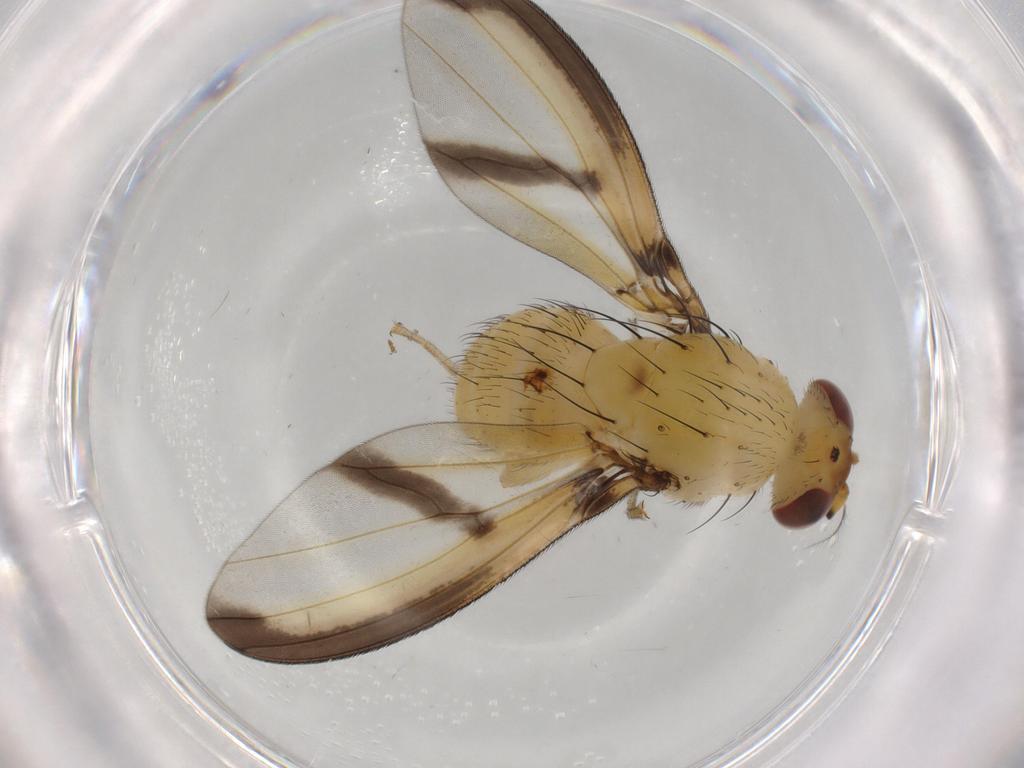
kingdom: Animalia
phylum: Arthropoda
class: Insecta
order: Diptera
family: Lauxaniidae
